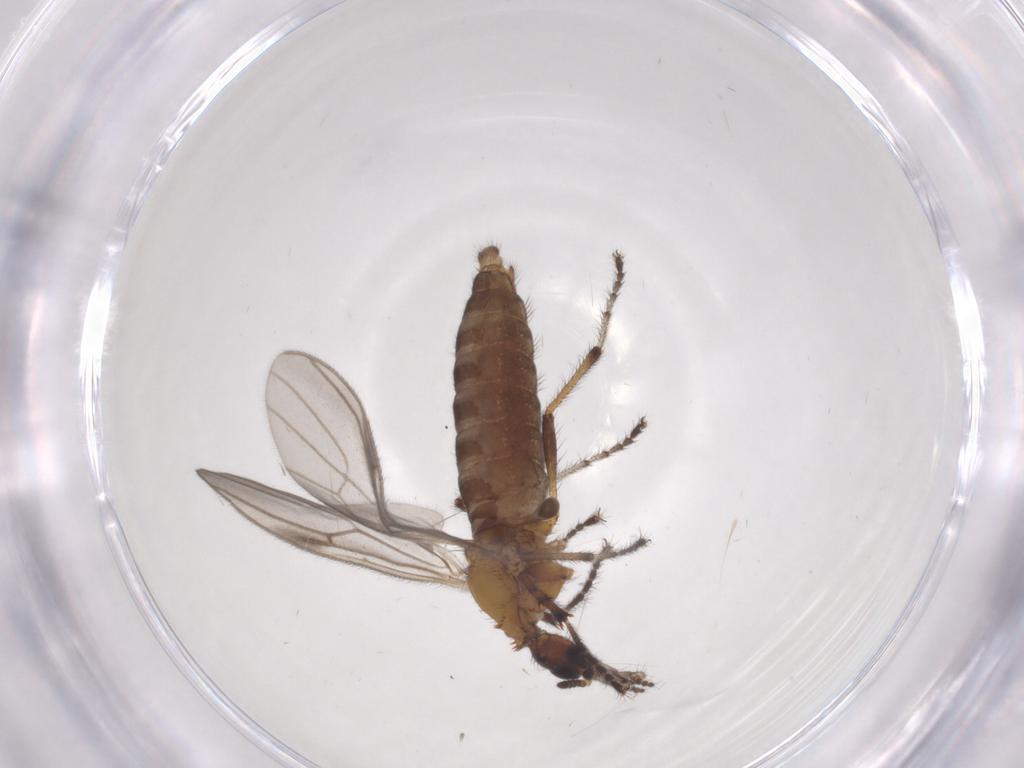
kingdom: Animalia
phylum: Arthropoda
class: Insecta
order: Diptera
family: Bibionidae
